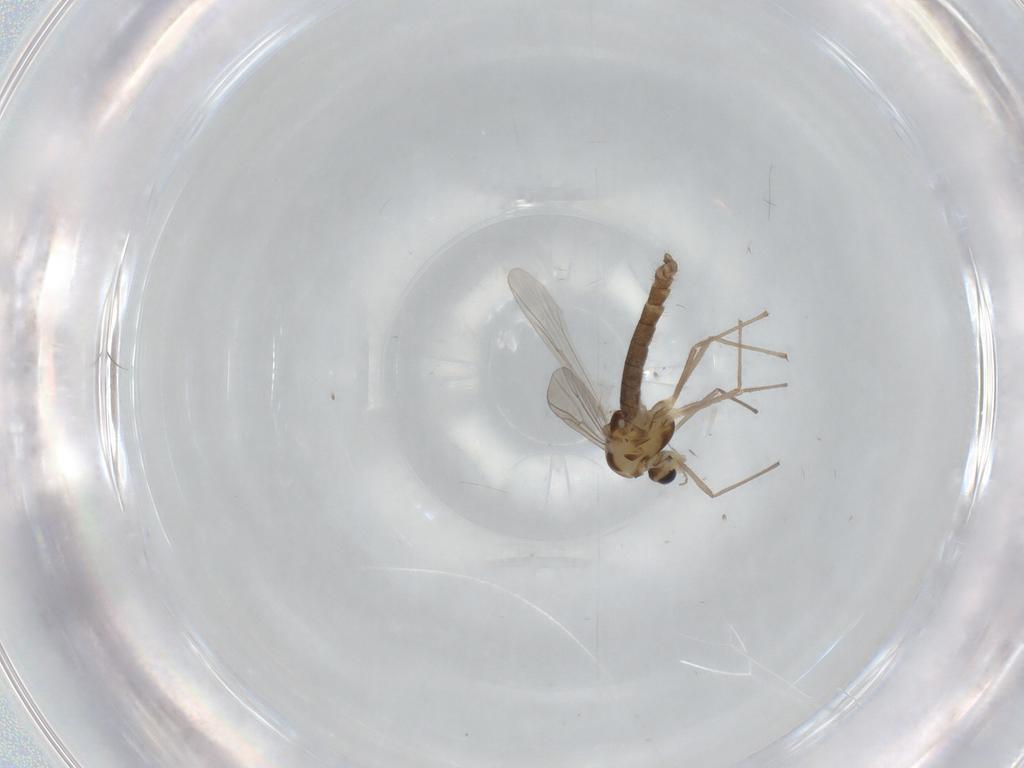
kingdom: Animalia
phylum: Arthropoda
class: Insecta
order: Diptera
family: Chironomidae
